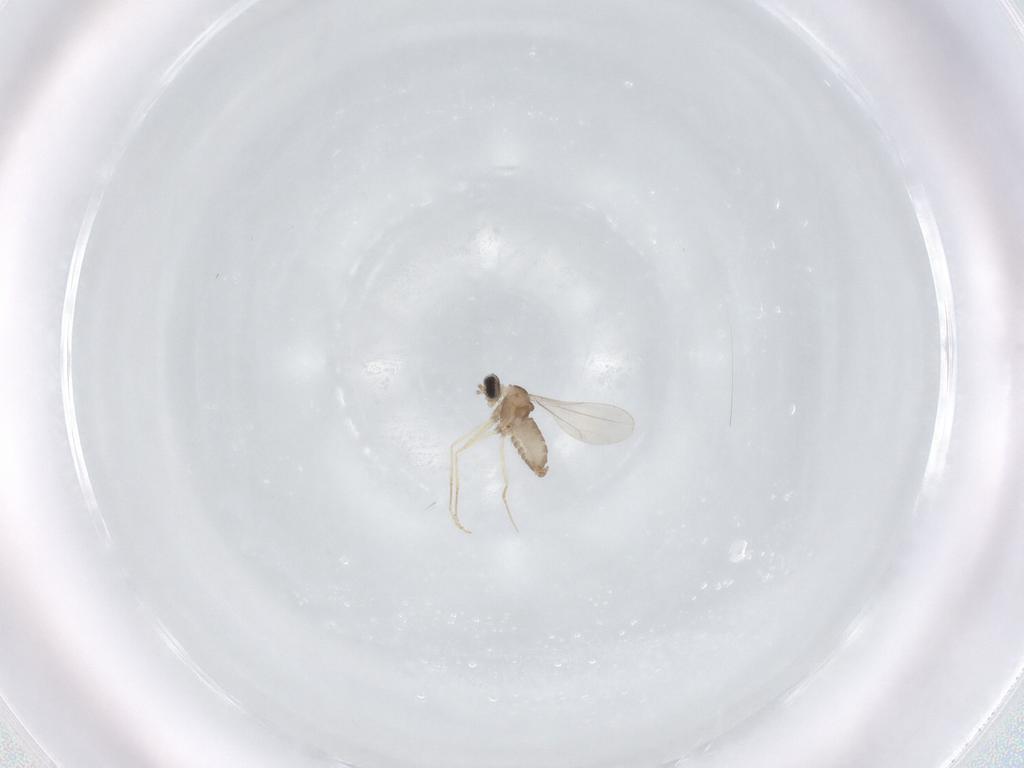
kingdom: Animalia
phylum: Arthropoda
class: Insecta
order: Diptera
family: Cecidomyiidae
